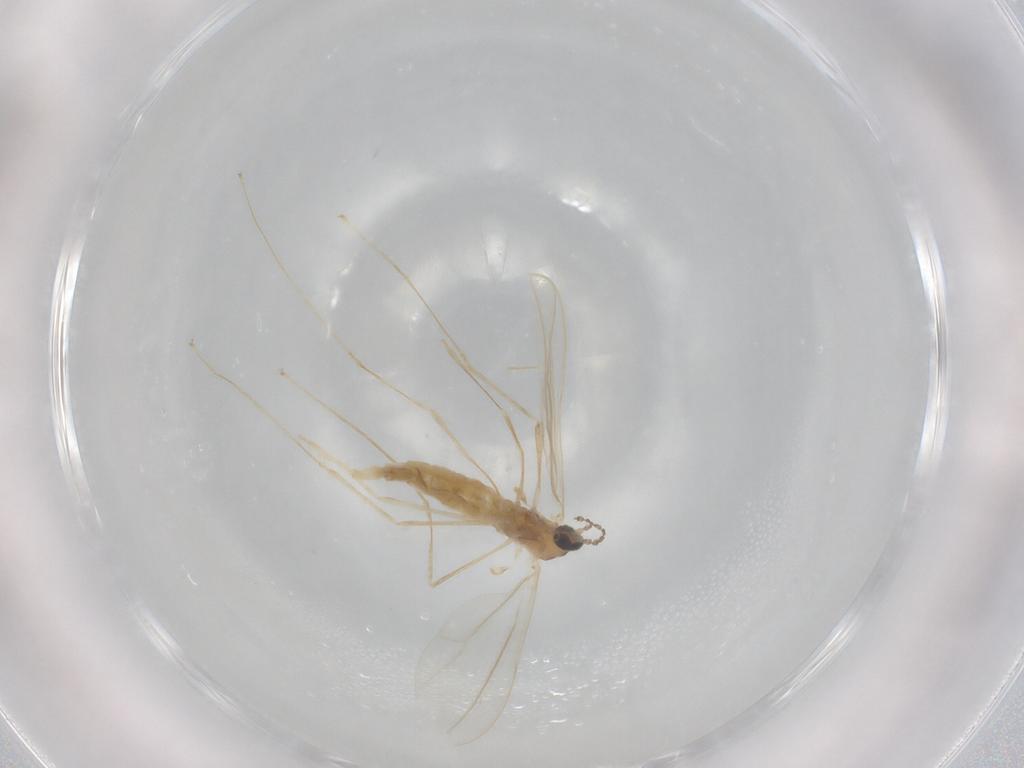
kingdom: Animalia
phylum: Arthropoda
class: Insecta
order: Diptera
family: Cecidomyiidae
